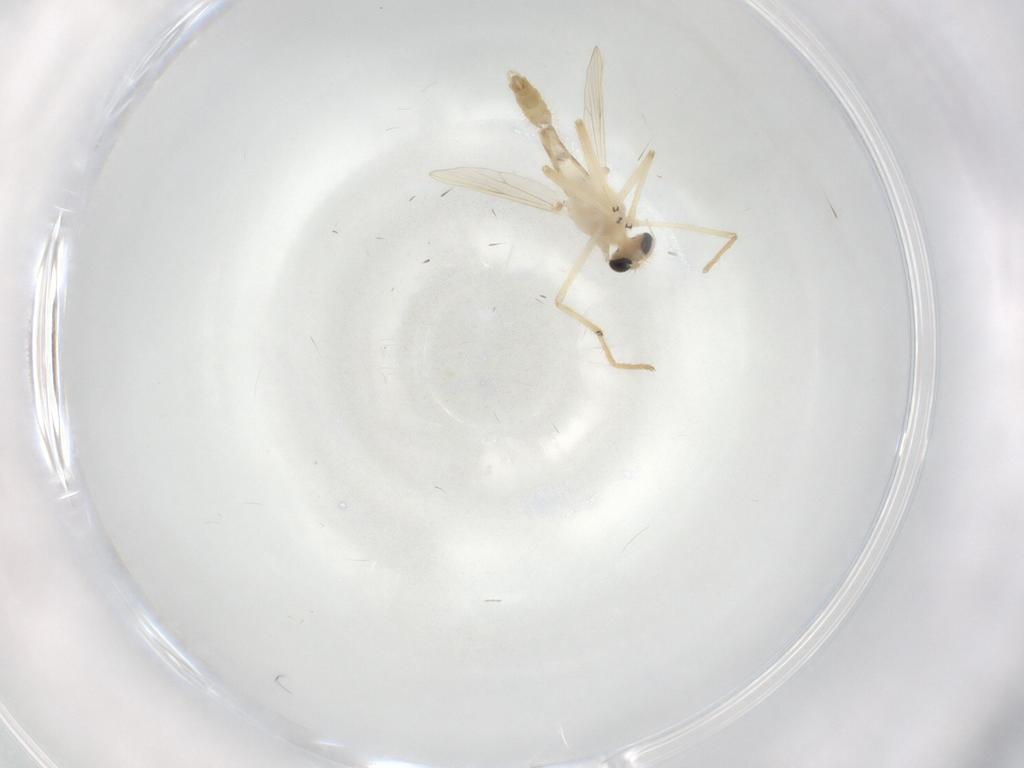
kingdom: Animalia
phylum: Arthropoda
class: Insecta
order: Diptera
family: Chironomidae
